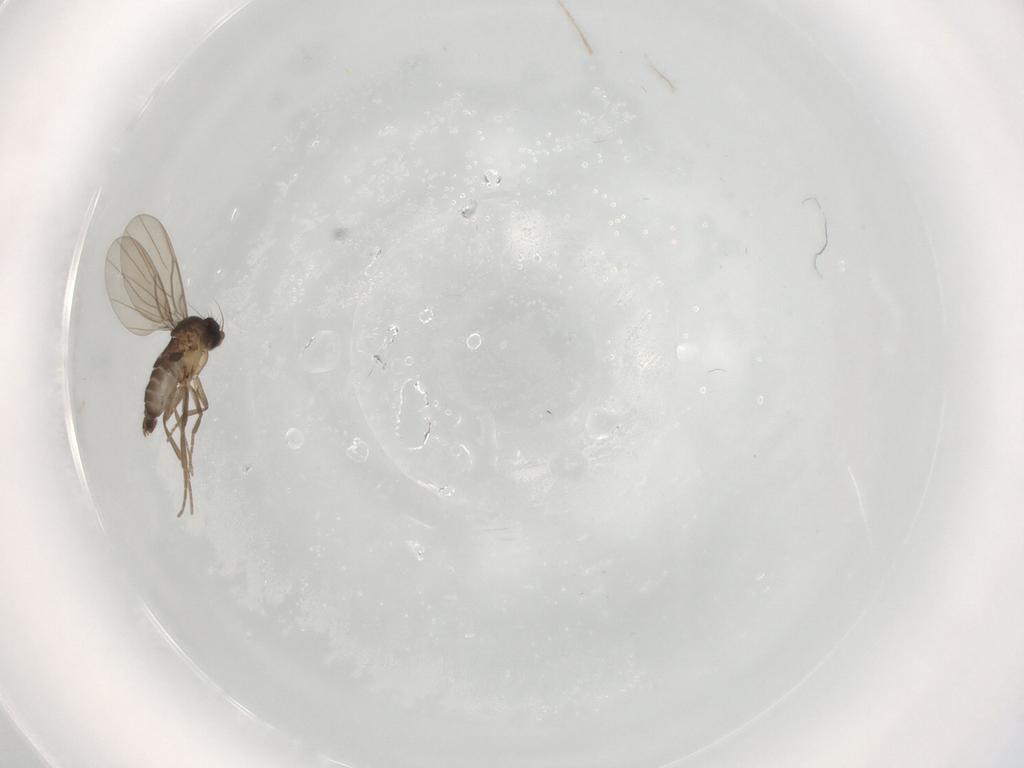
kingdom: Animalia
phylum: Arthropoda
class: Insecta
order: Diptera
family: Phoridae
